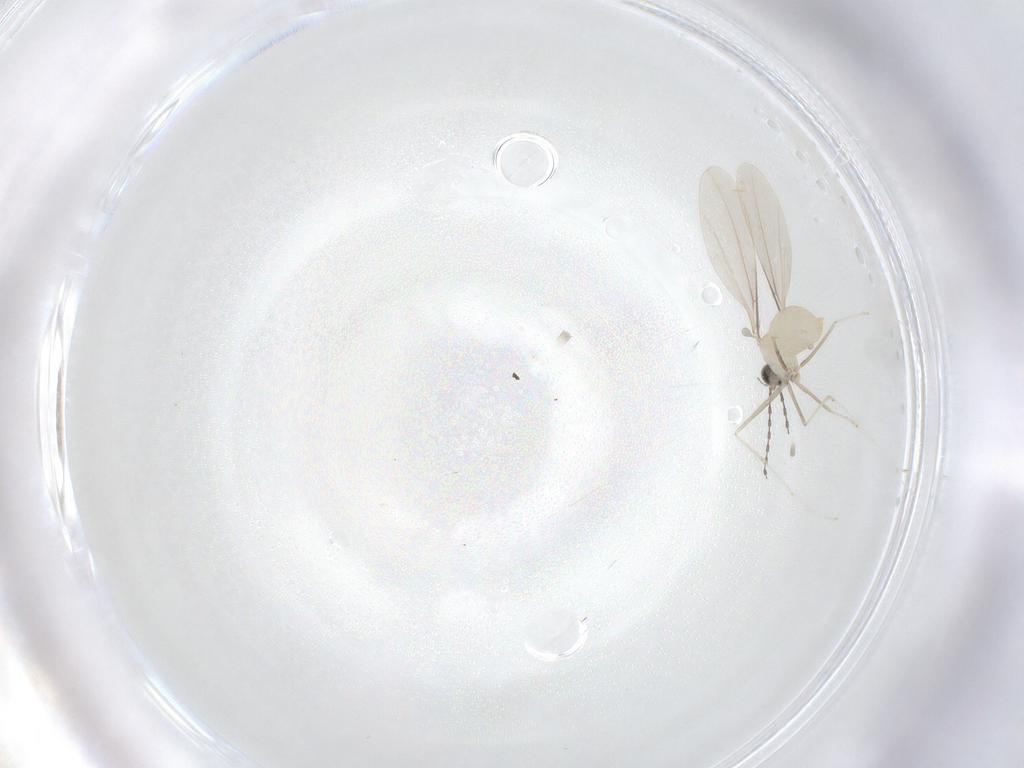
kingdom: Animalia
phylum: Arthropoda
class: Insecta
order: Diptera
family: Cecidomyiidae
